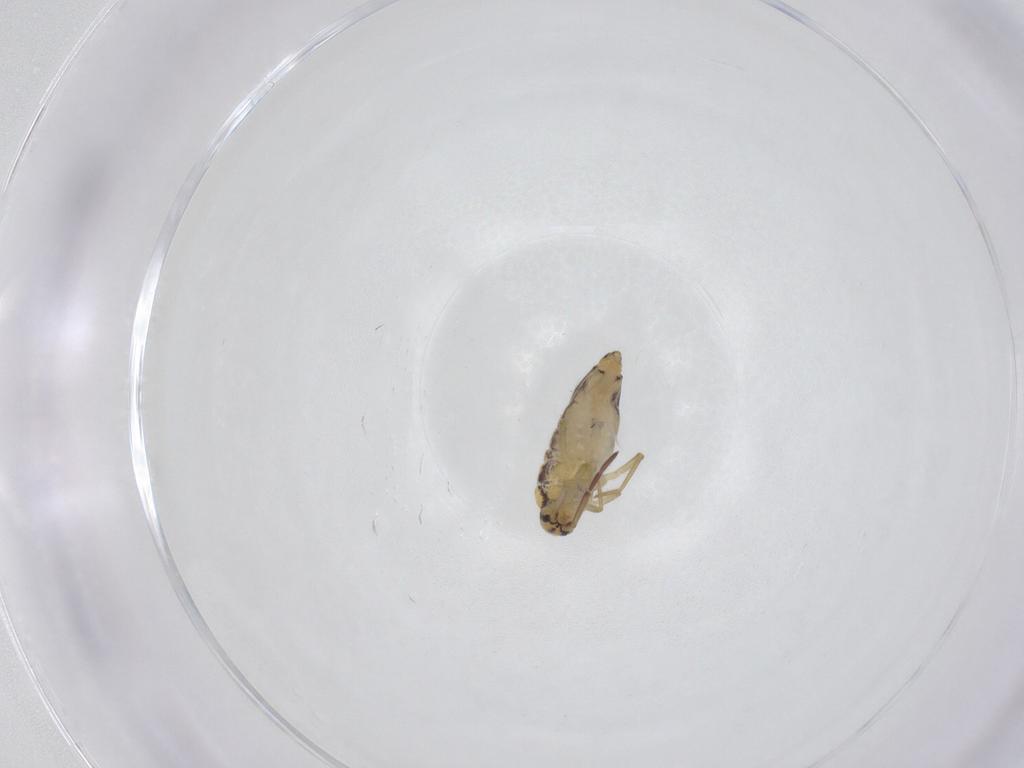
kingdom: Animalia
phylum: Arthropoda
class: Collembola
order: Entomobryomorpha
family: Entomobryidae
